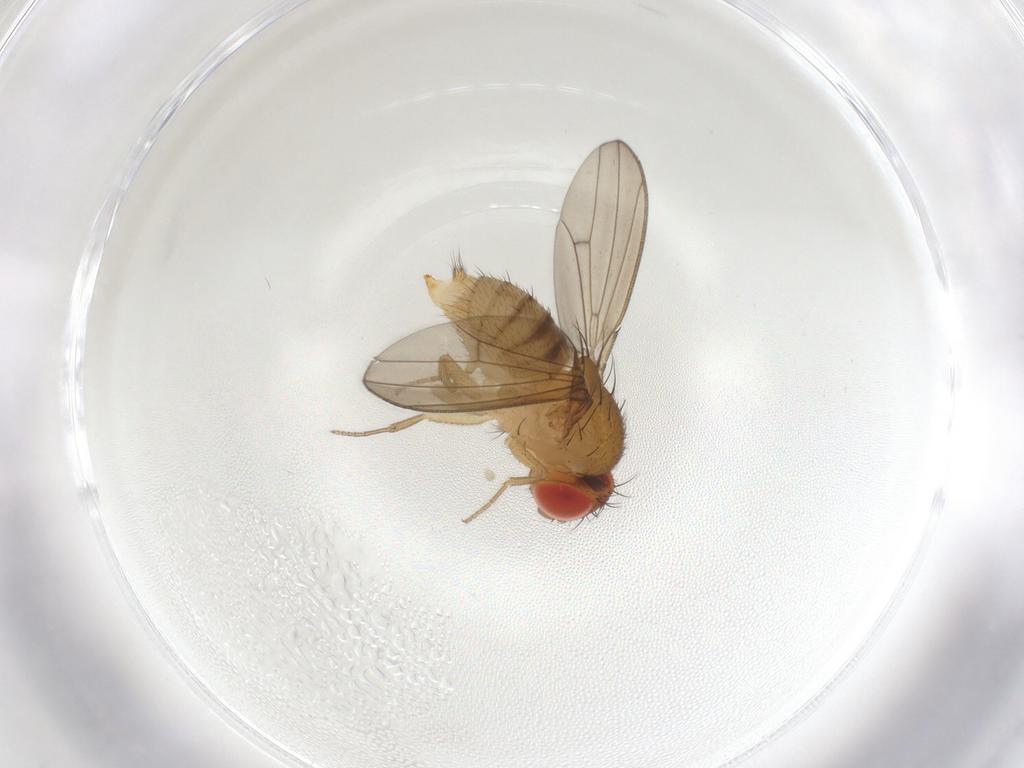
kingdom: Animalia
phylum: Arthropoda
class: Insecta
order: Diptera
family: Drosophilidae
